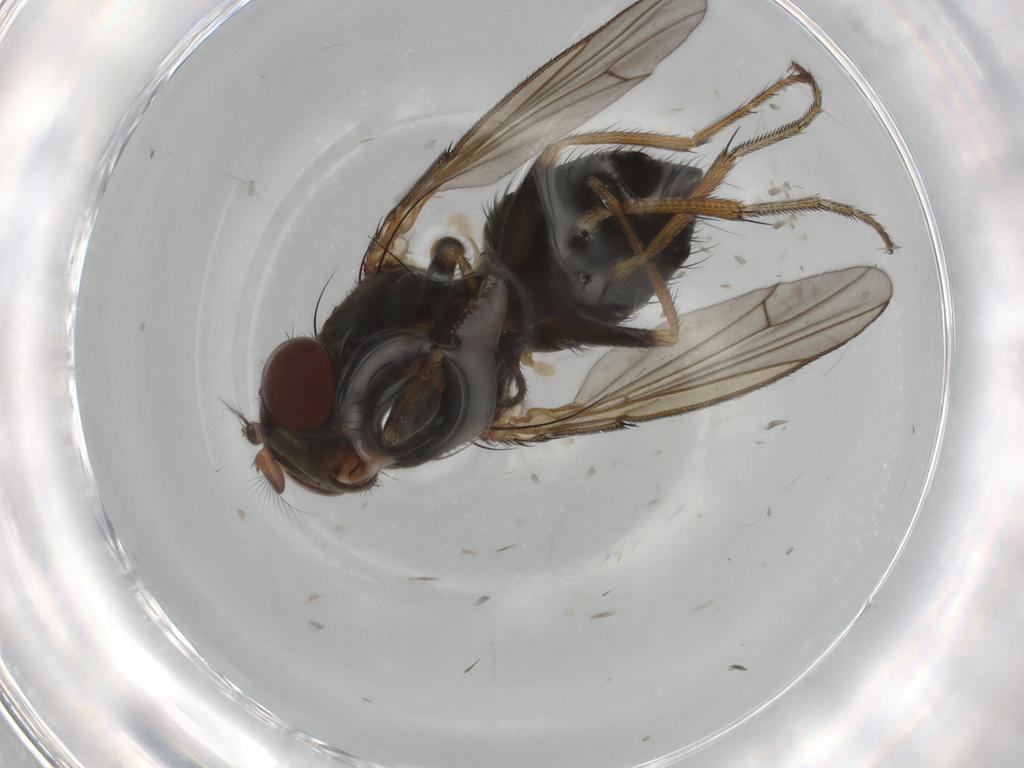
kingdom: Animalia
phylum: Arthropoda
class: Insecta
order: Diptera
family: Ephydridae
